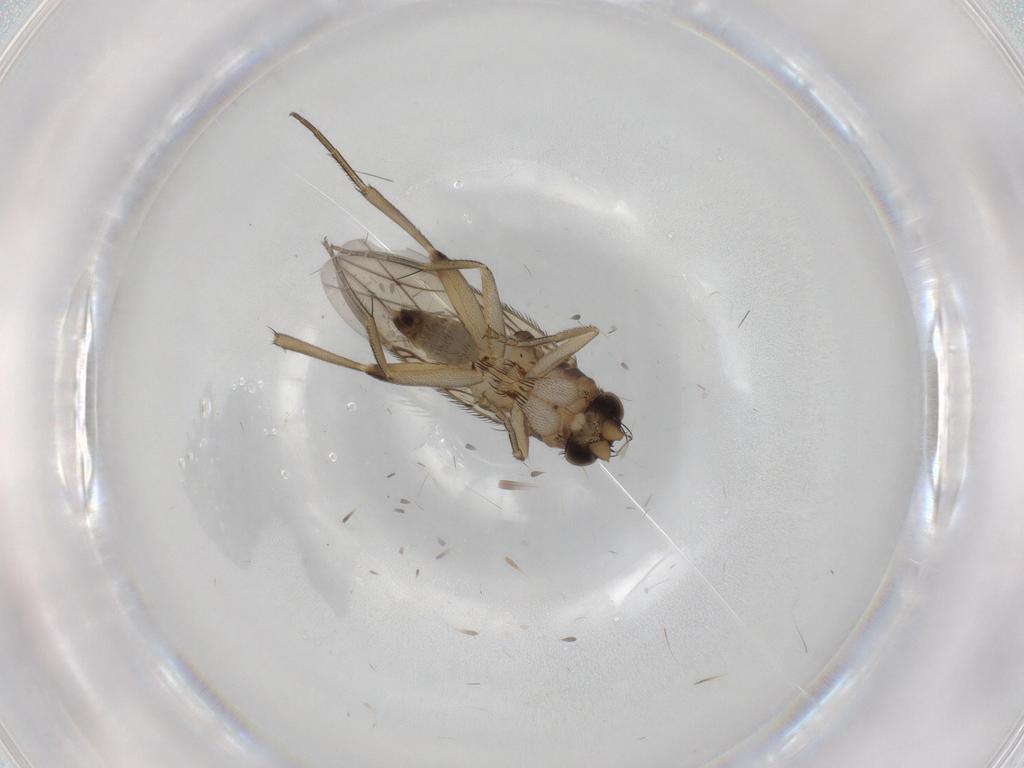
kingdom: Animalia
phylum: Arthropoda
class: Insecta
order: Diptera
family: Phoridae
